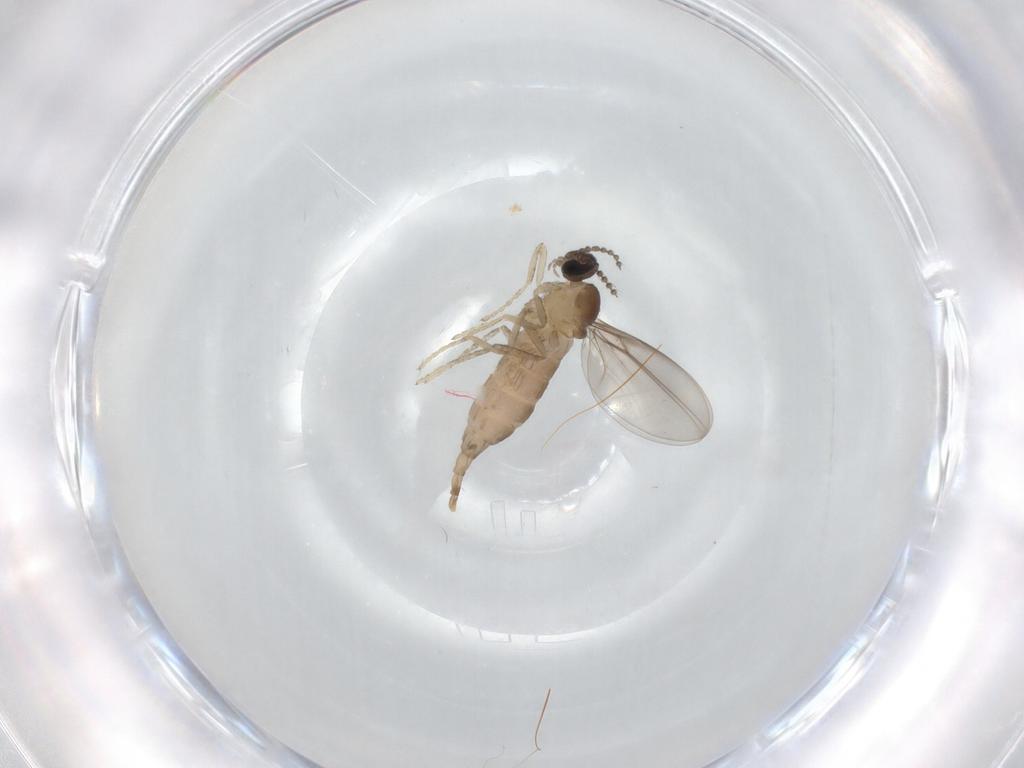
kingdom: Animalia
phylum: Arthropoda
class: Insecta
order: Diptera
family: Cecidomyiidae
